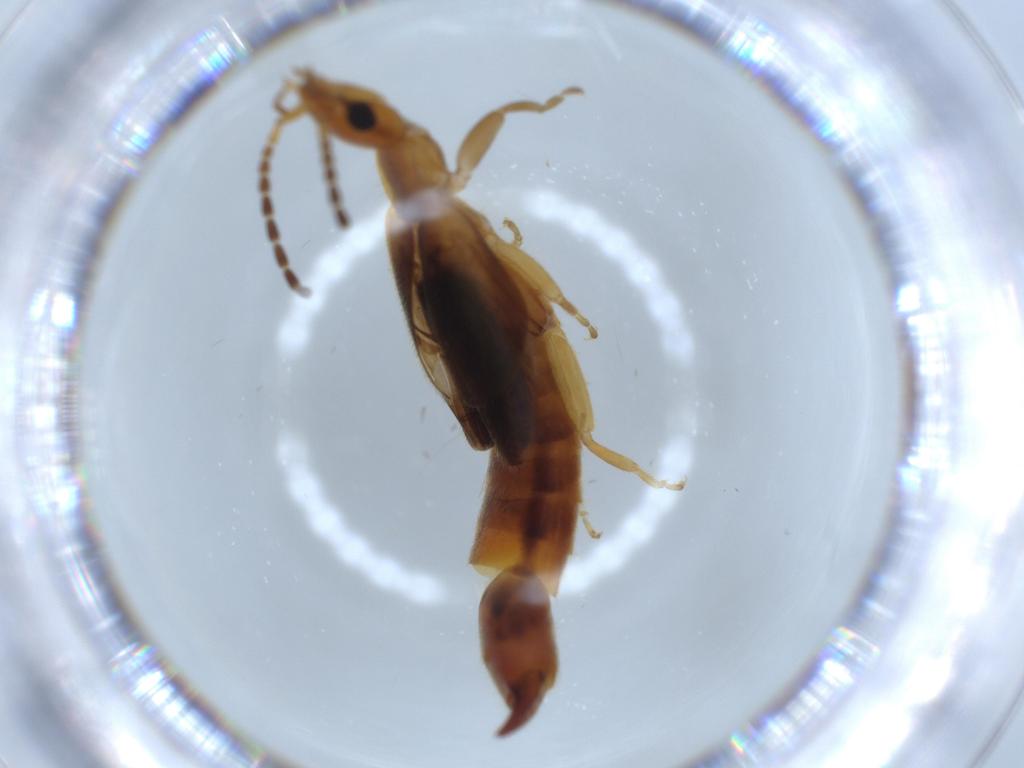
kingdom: Animalia
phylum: Arthropoda
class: Insecta
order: Dermaptera
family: Forficulidae
